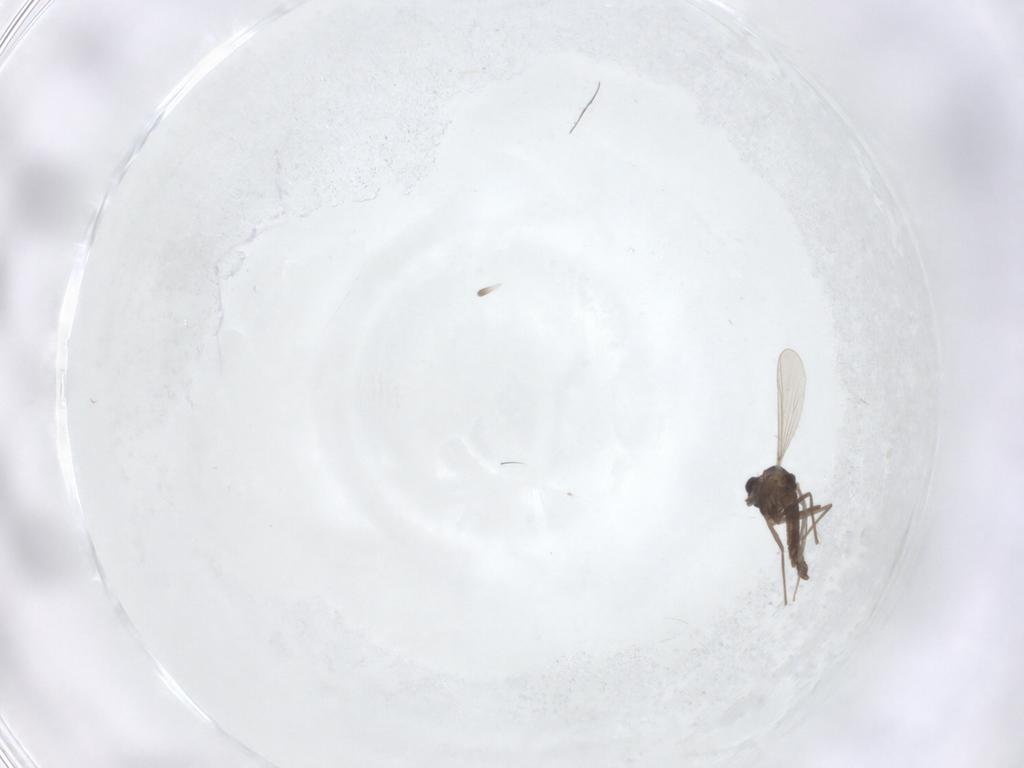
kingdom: Animalia
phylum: Arthropoda
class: Insecta
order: Diptera
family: Chironomidae
